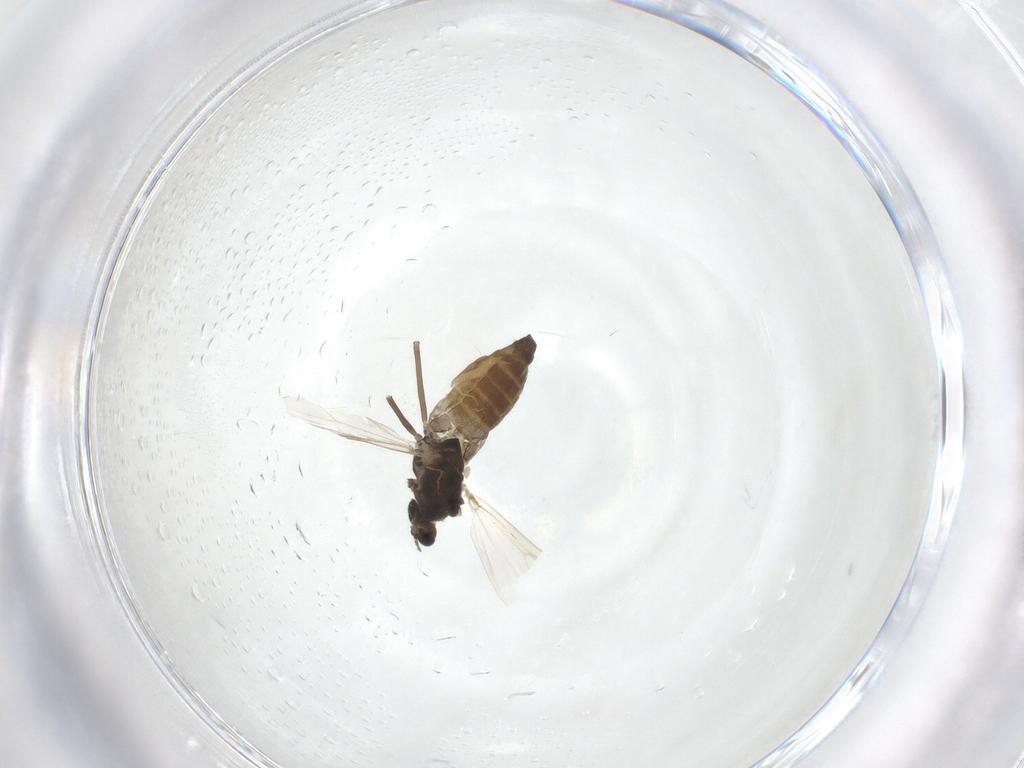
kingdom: Animalia
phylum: Arthropoda
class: Insecta
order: Diptera
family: Chironomidae
